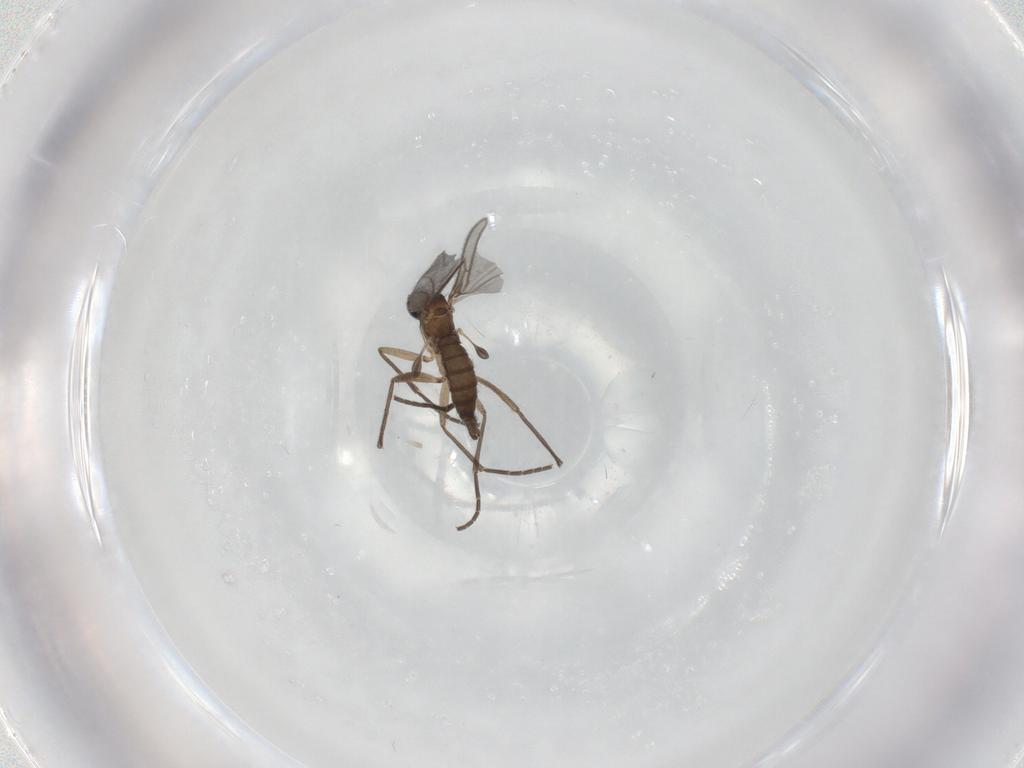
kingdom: Animalia
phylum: Arthropoda
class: Insecta
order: Diptera
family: Sciaridae
